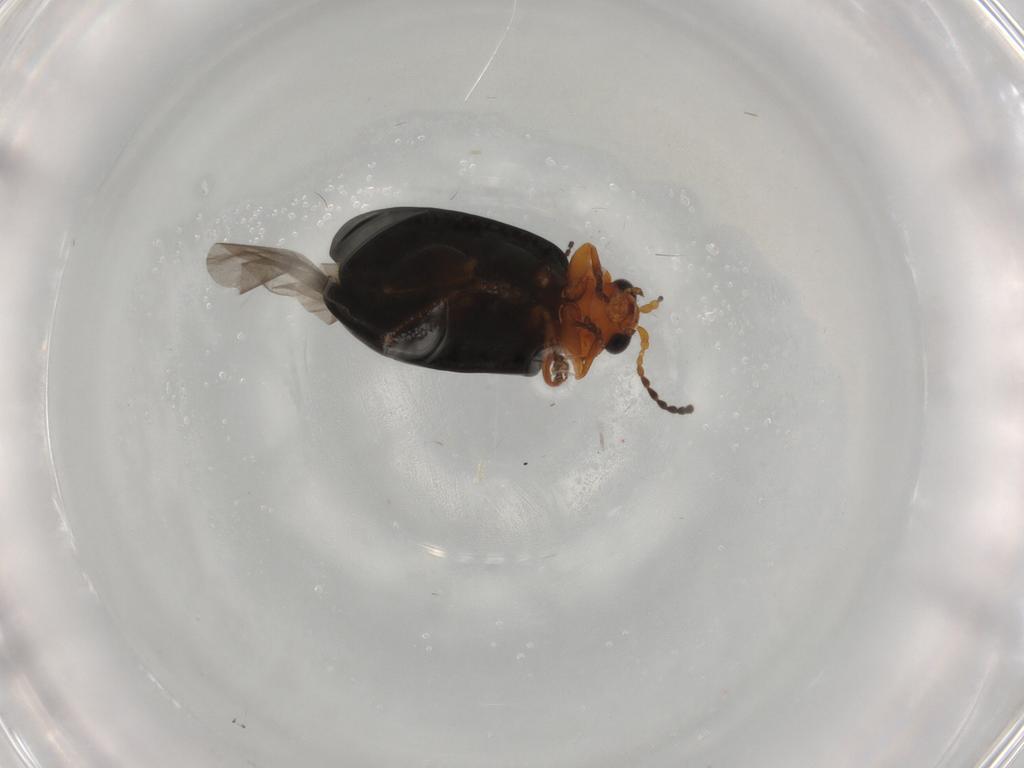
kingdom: Animalia
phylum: Arthropoda
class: Insecta
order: Coleoptera
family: Chrysomelidae
